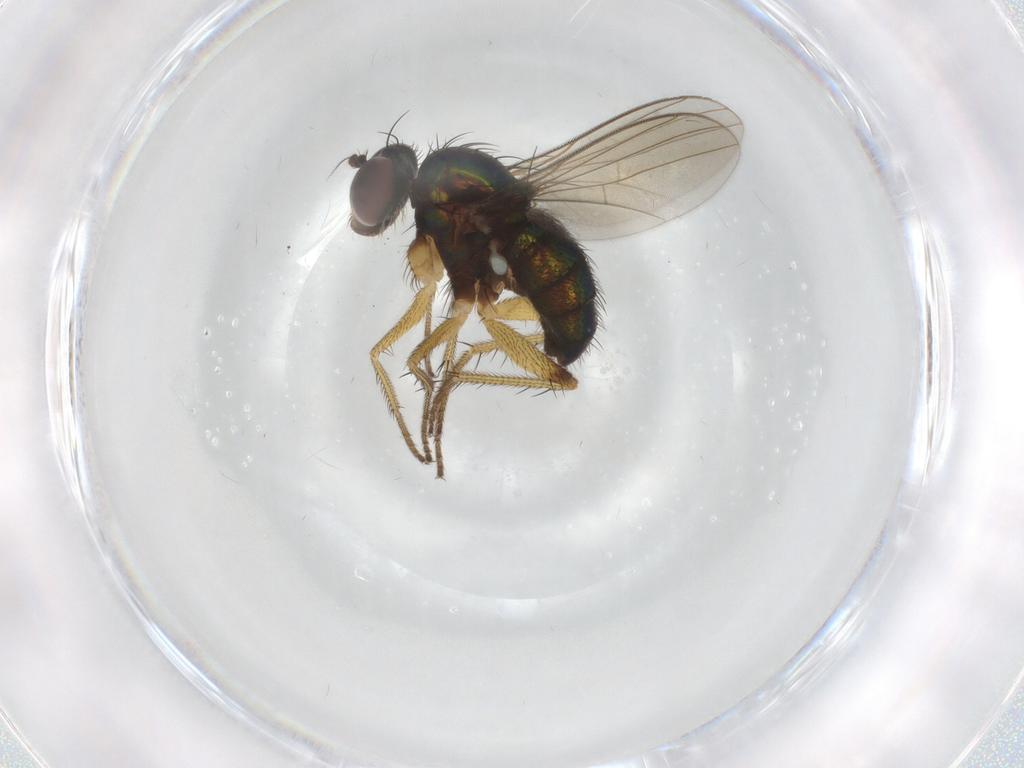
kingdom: Animalia
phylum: Arthropoda
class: Insecta
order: Diptera
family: Dolichopodidae
